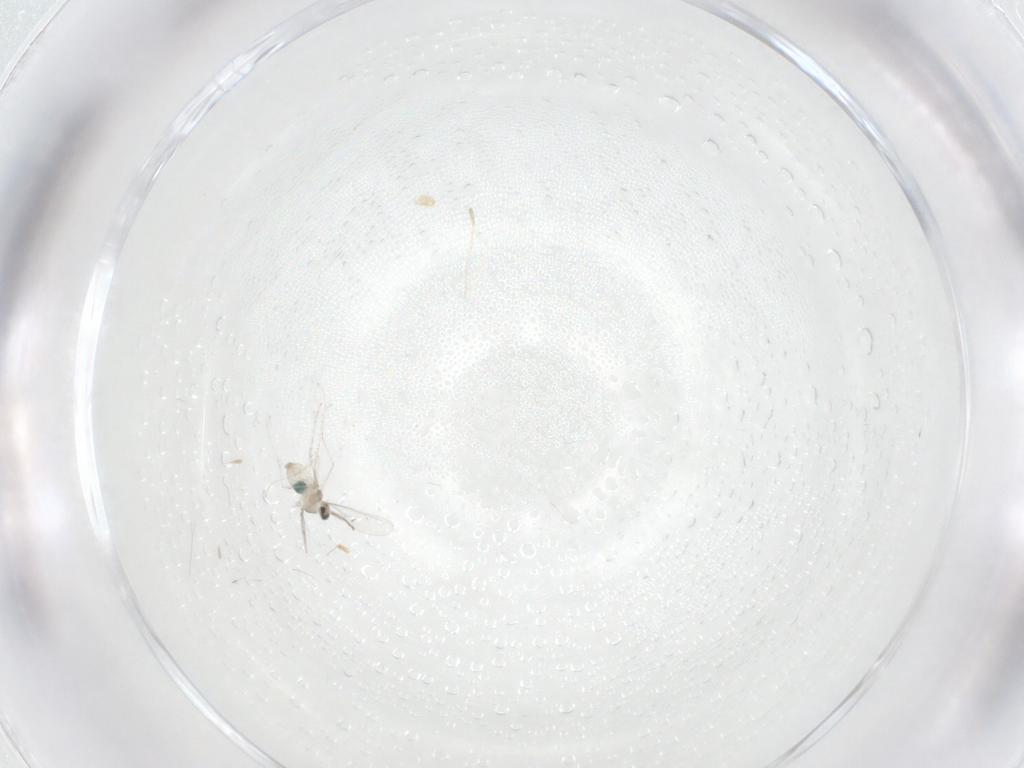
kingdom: Animalia
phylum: Arthropoda
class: Insecta
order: Diptera
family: Cecidomyiidae
